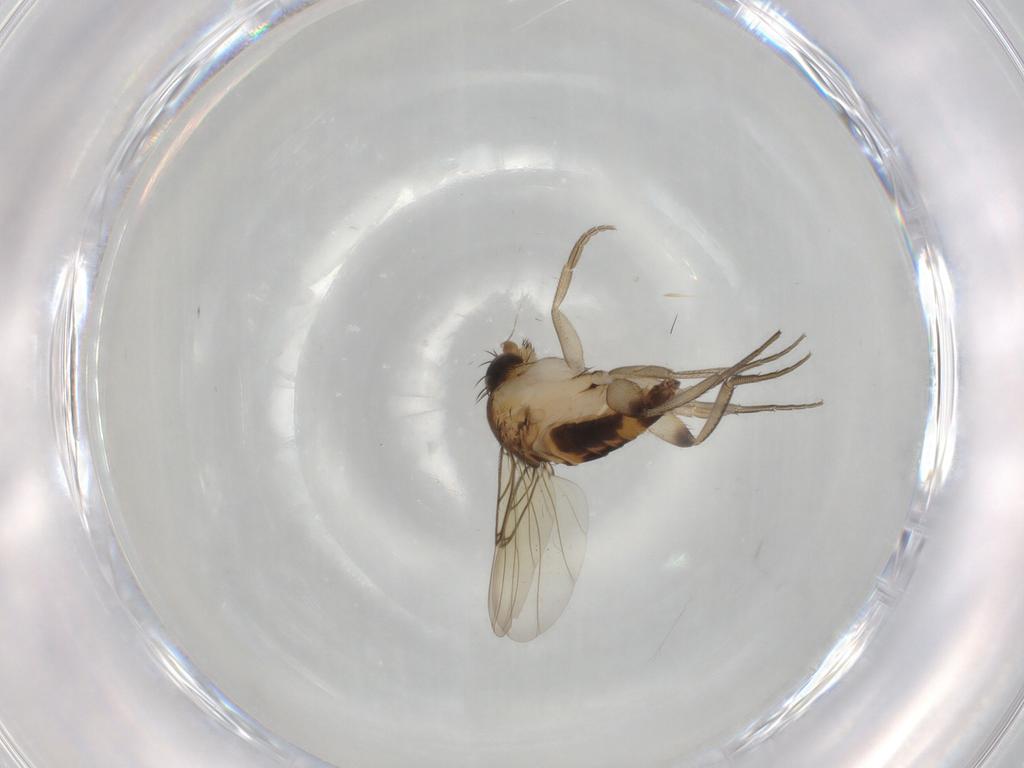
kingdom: Animalia
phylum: Arthropoda
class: Insecta
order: Diptera
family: Phoridae
